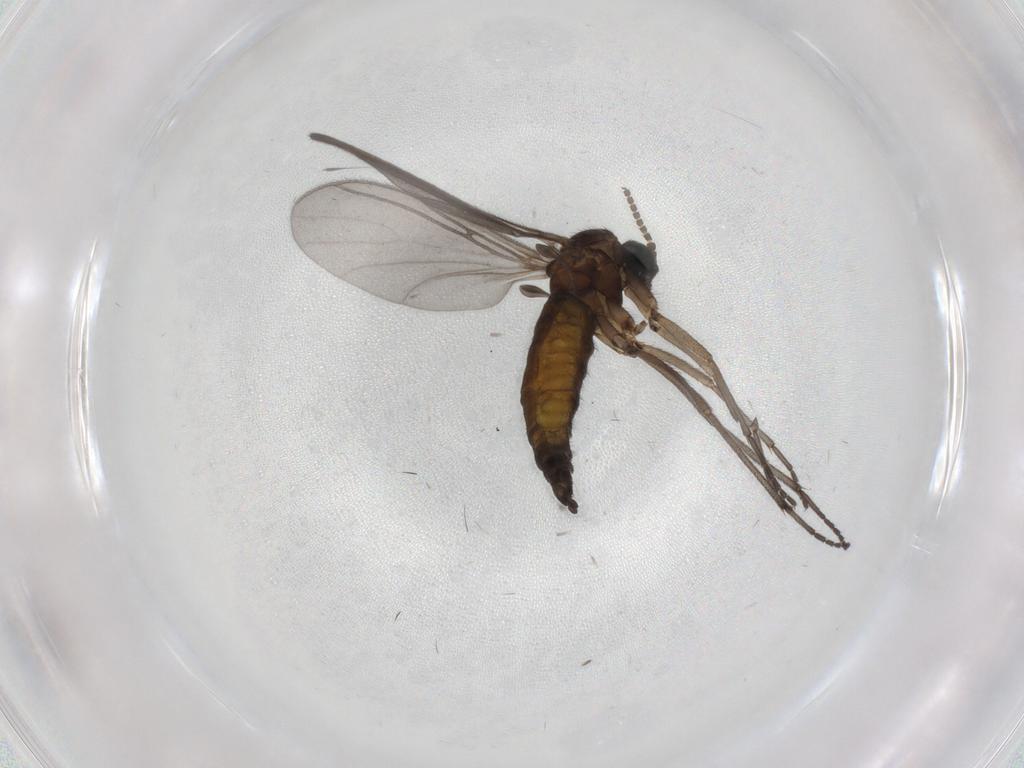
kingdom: Animalia
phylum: Arthropoda
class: Insecta
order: Diptera
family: Sciaridae
